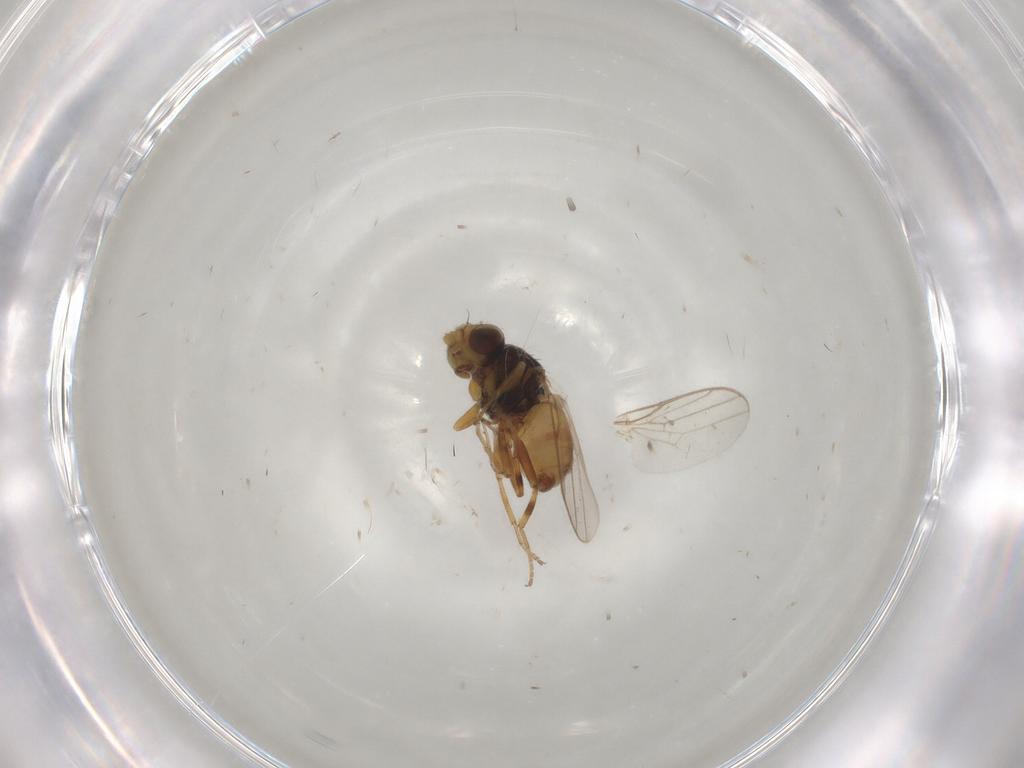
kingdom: Animalia
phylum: Arthropoda
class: Insecta
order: Diptera
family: Chloropidae
